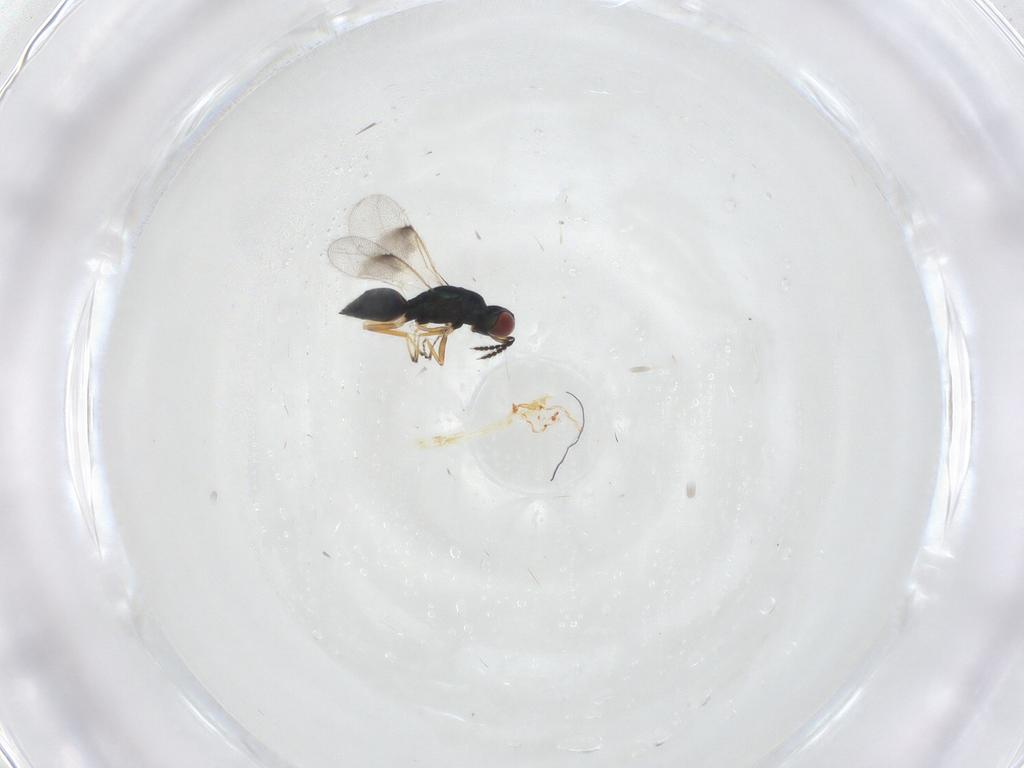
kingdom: Animalia
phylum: Arthropoda
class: Insecta
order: Hymenoptera
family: Eulophidae
